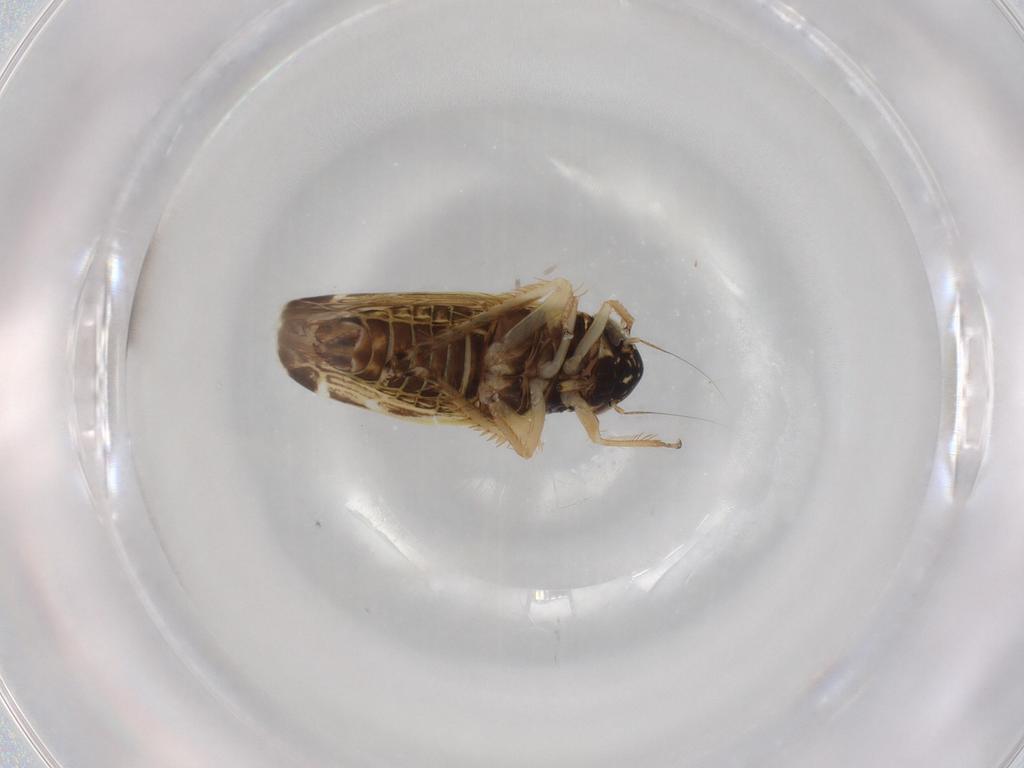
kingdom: Animalia
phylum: Arthropoda
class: Insecta
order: Hemiptera
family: Cicadellidae
